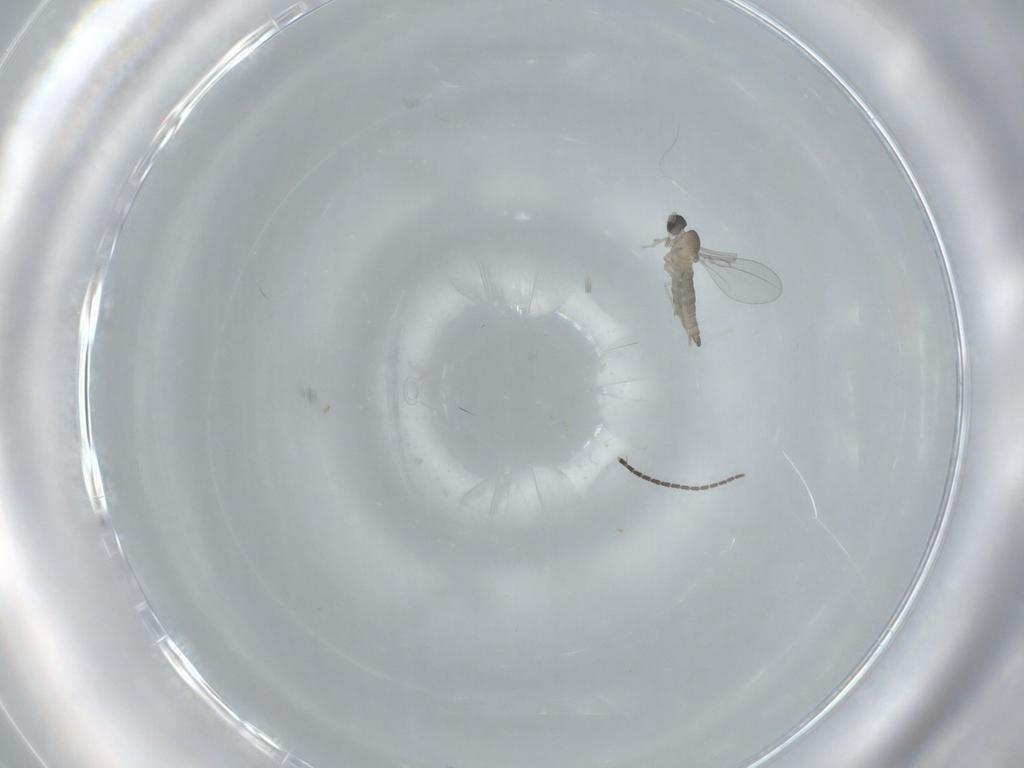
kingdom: Animalia
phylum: Arthropoda
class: Insecta
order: Diptera
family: Cecidomyiidae
